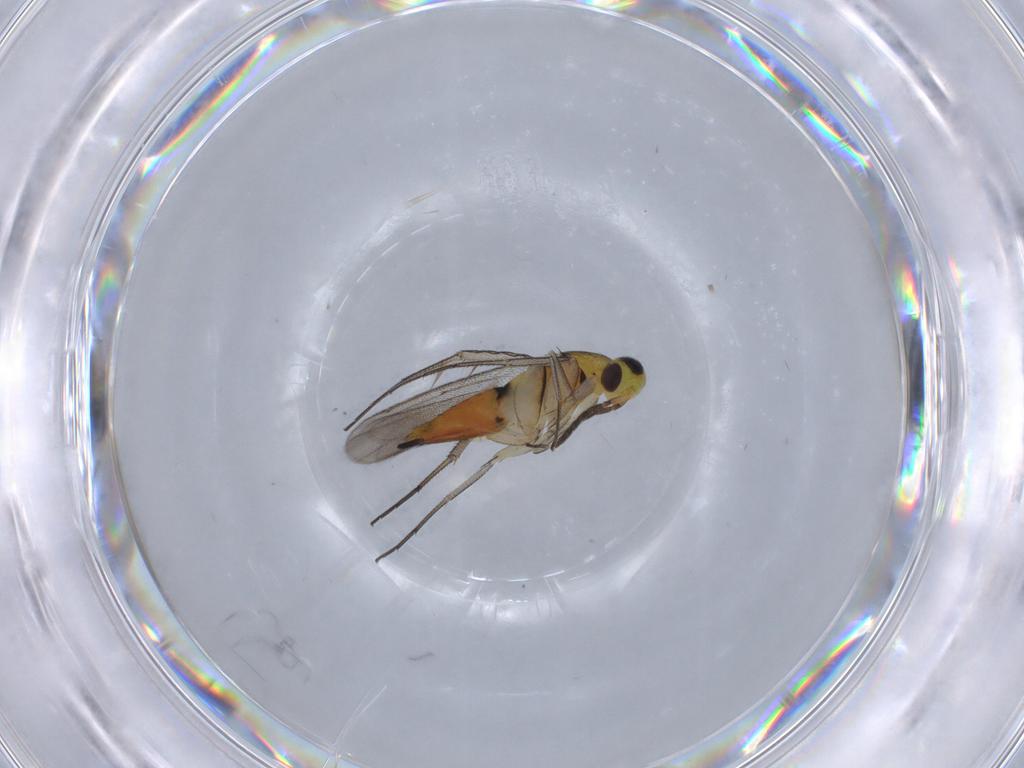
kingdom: Animalia
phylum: Arthropoda
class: Insecta
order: Hymenoptera
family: Eulophidae
